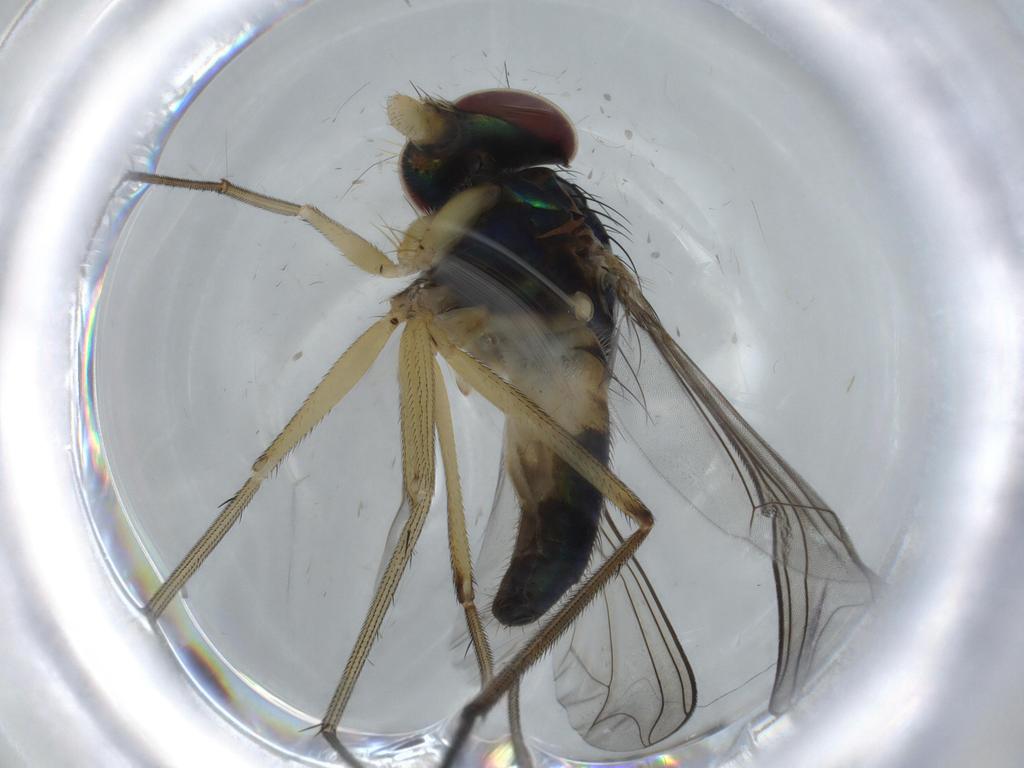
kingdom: Animalia
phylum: Arthropoda
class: Insecta
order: Diptera
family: Dolichopodidae
